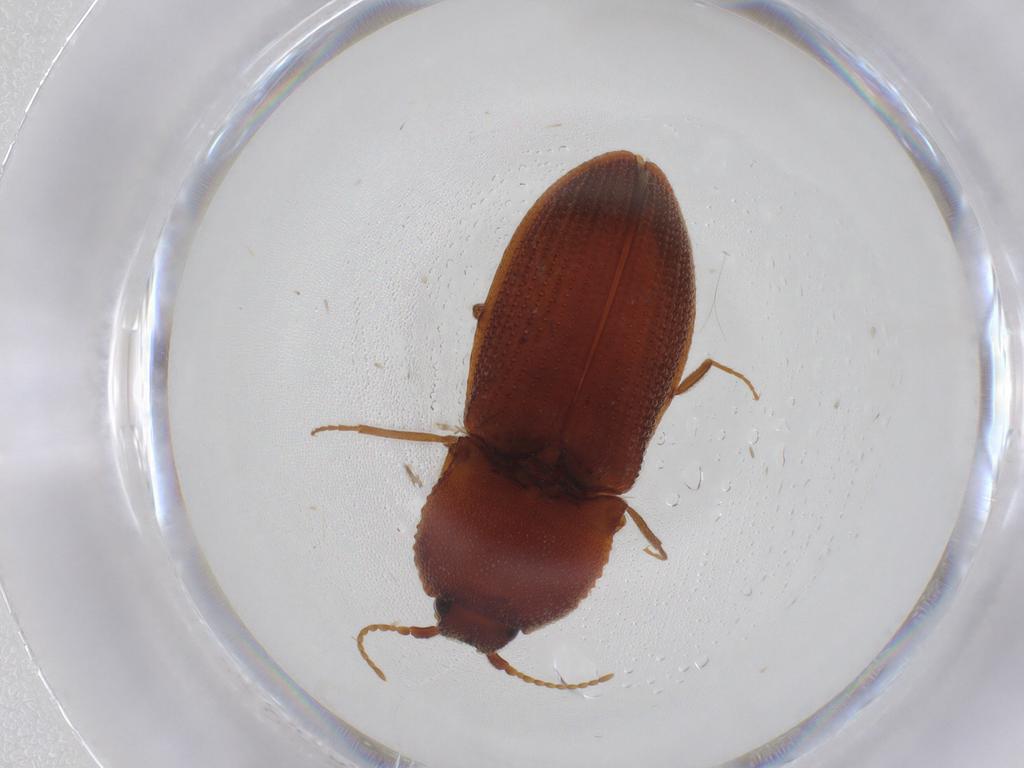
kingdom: Animalia
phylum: Arthropoda
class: Insecta
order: Coleoptera
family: Elateridae
